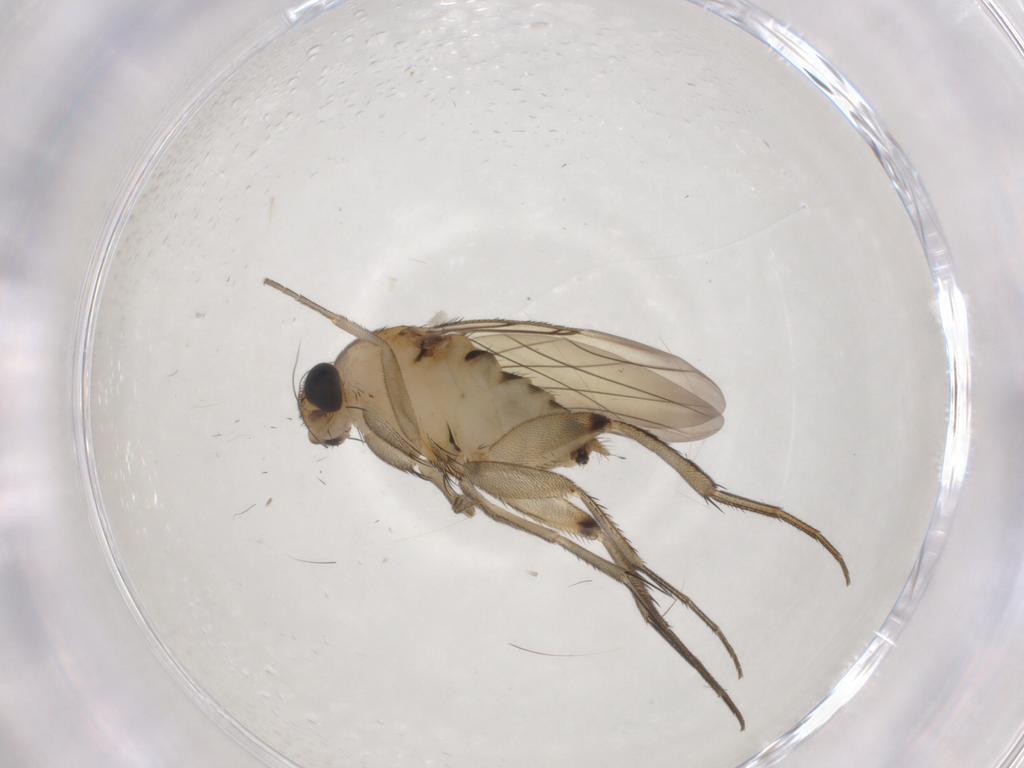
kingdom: Animalia
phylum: Arthropoda
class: Insecta
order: Diptera
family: Phoridae
